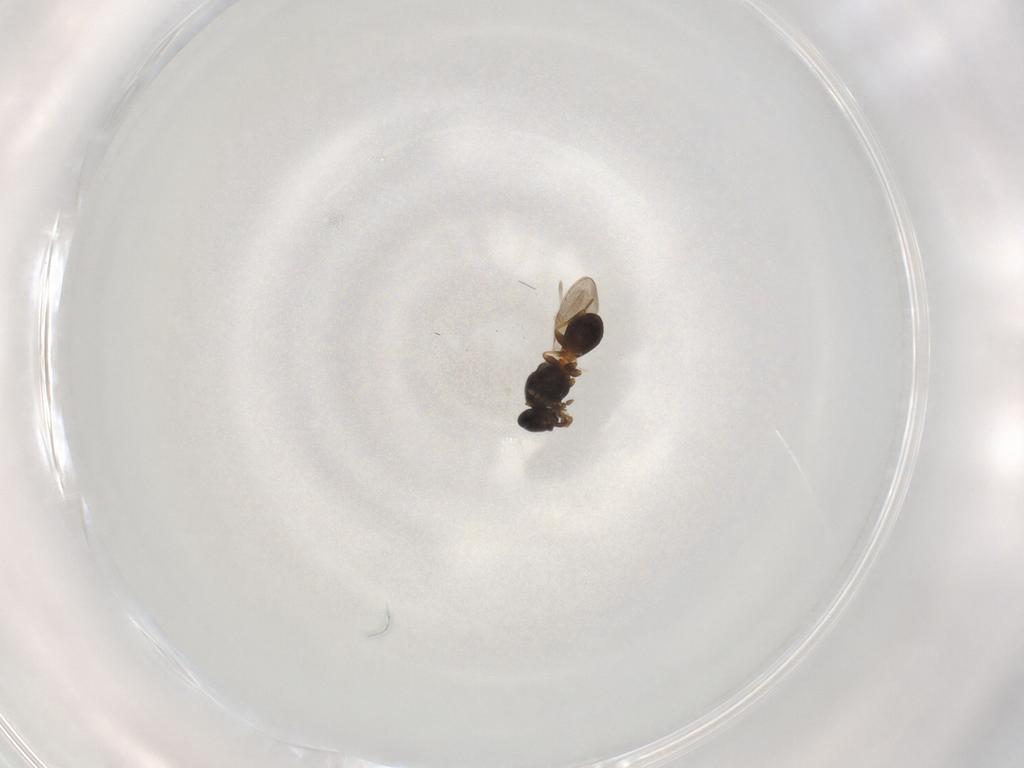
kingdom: Animalia
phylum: Arthropoda
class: Insecta
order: Hymenoptera
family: Platygastridae
